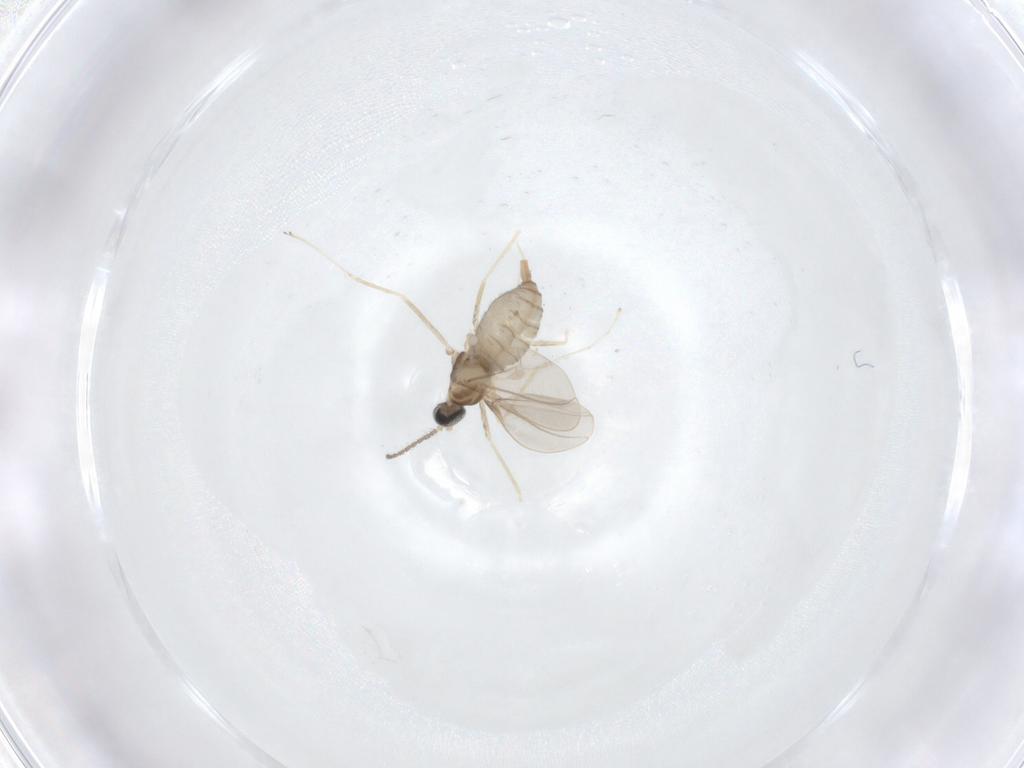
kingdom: Animalia
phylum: Arthropoda
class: Insecta
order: Diptera
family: Cecidomyiidae
